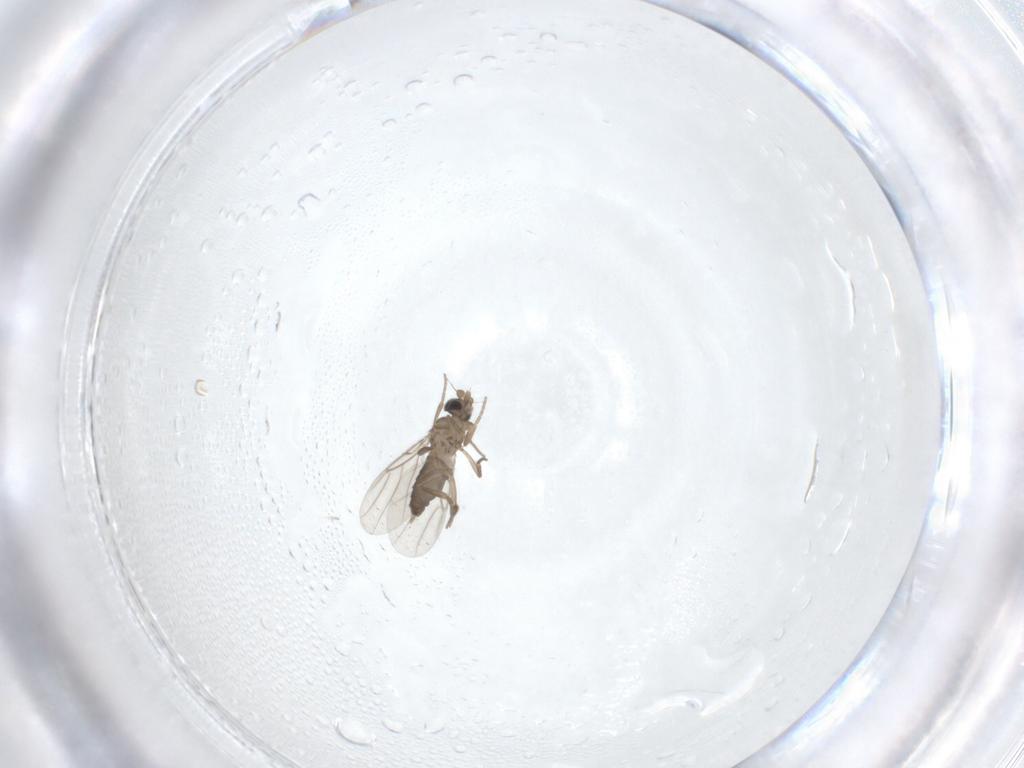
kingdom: Animalia
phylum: Arthropoda
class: Insecta
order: Diptera
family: Phoridae
